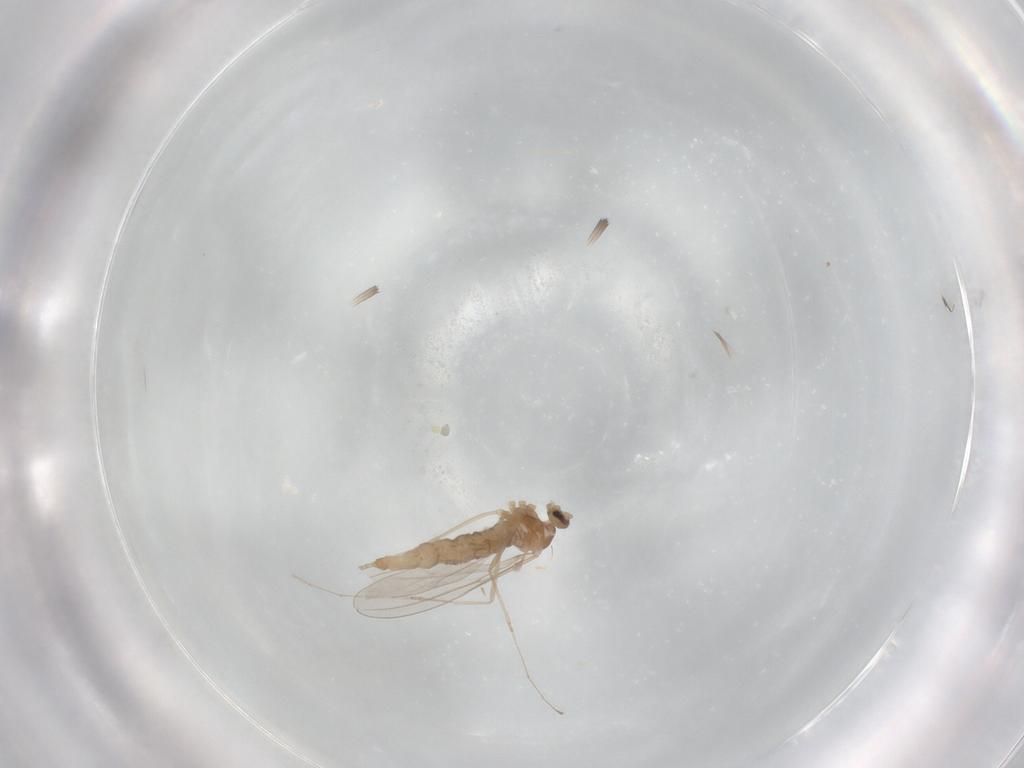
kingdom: Animalia
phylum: Arthropoda
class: Insecta
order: Diptera
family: Cecidomyiidae
